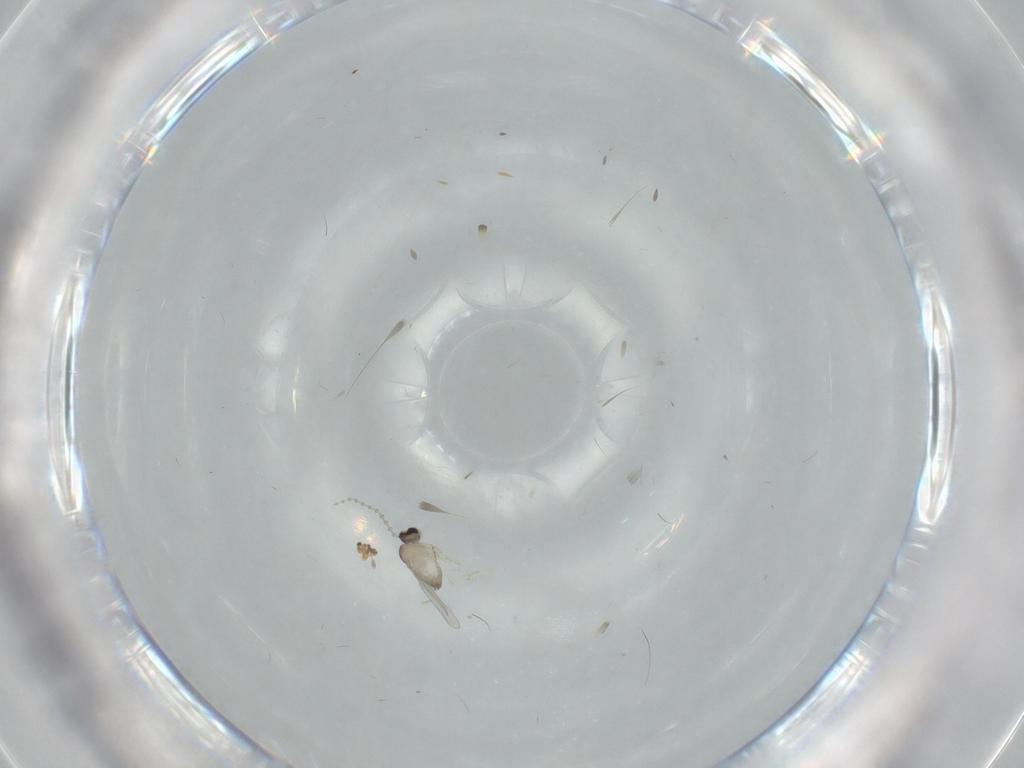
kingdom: Animalia
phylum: Arthropoda
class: Insecta
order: Diptera
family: Cecidomyiidae
